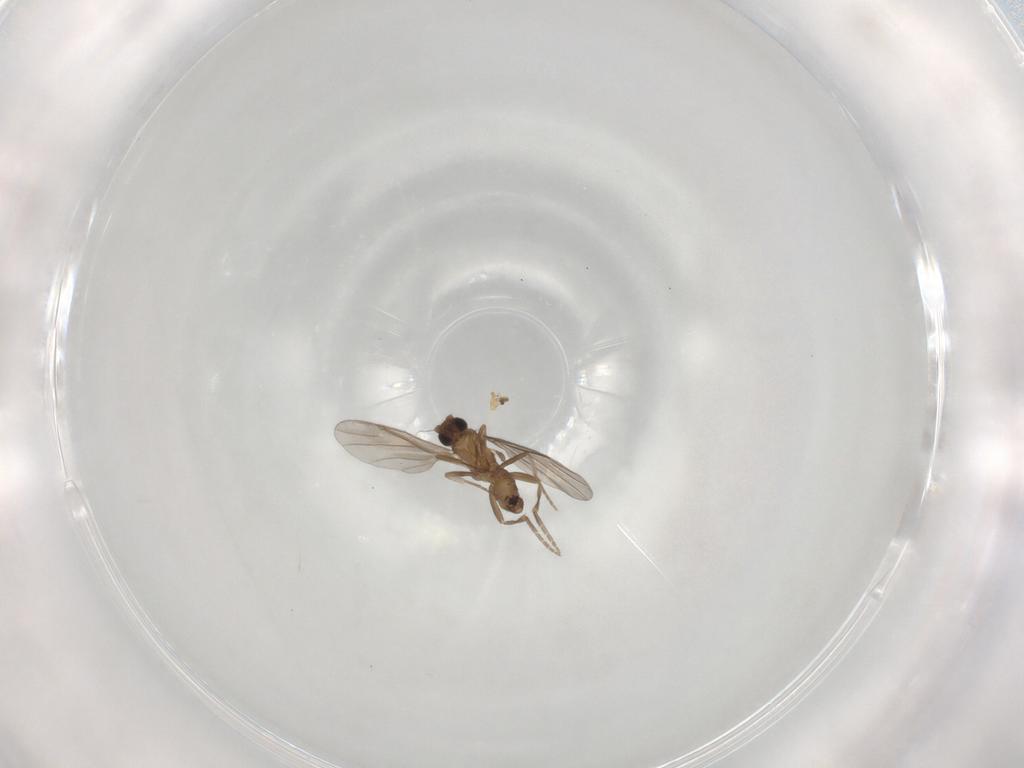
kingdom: Animalia
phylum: Arthropoda
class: Insecta
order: Diptera
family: Phoridae
